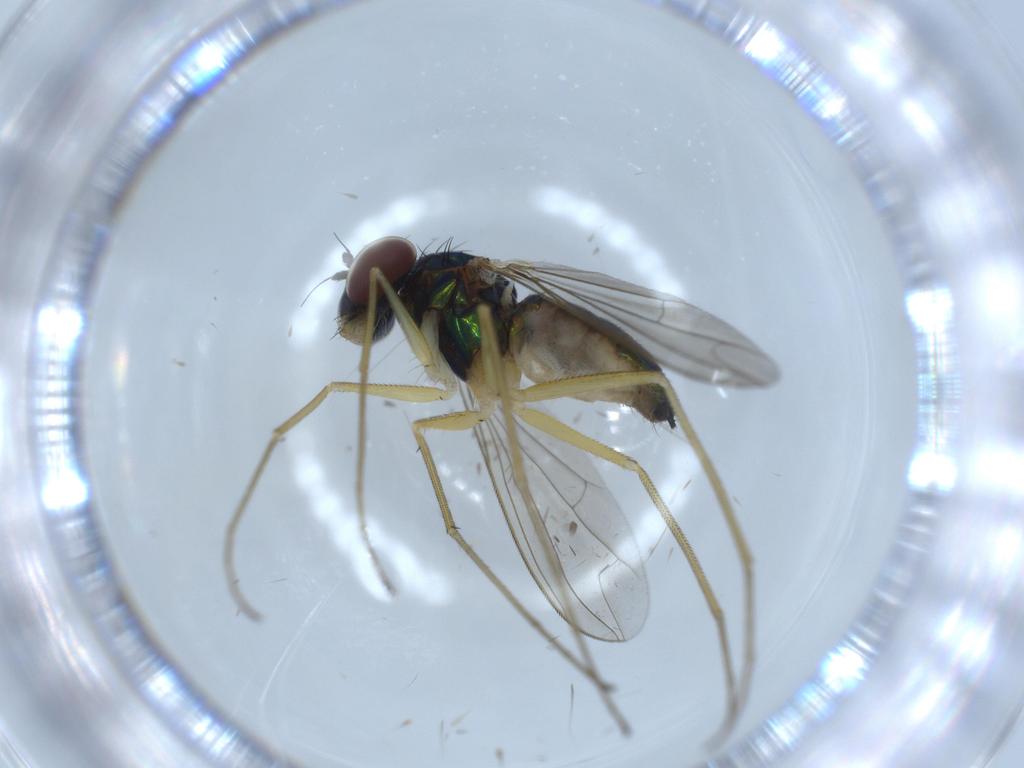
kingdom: Animalia
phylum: Arthropoda
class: Insecta
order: Diptera
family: Dolichopodidae
